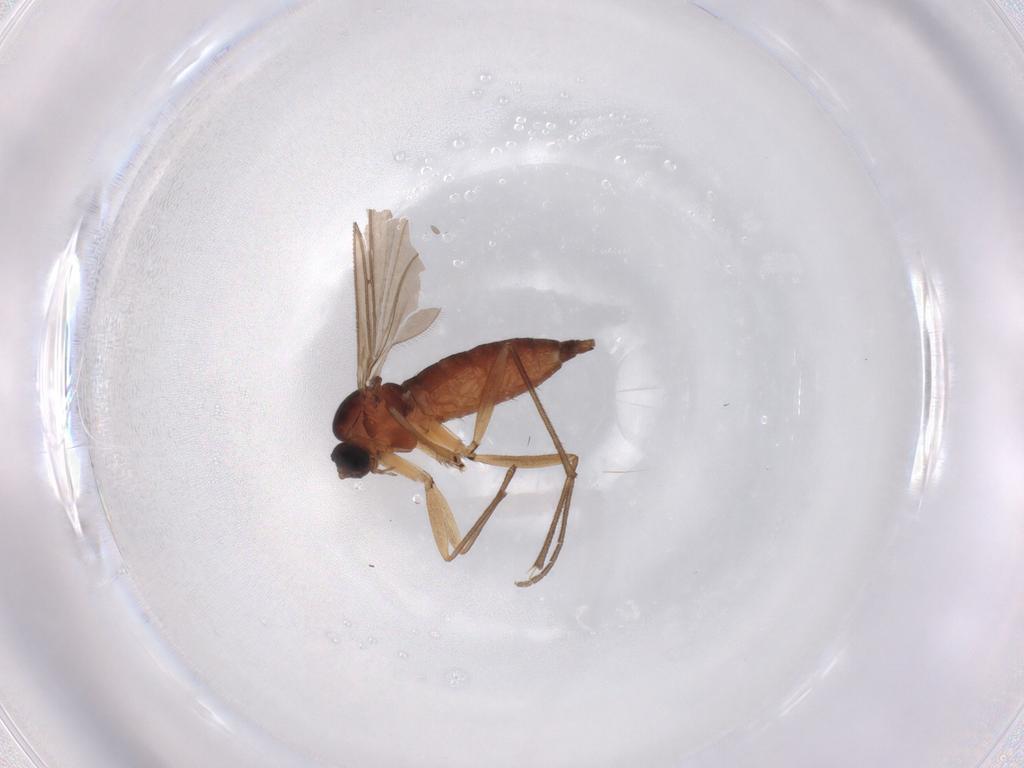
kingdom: Animalia
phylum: Arthropoda
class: Insecta
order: Diptera
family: Sciaridae
